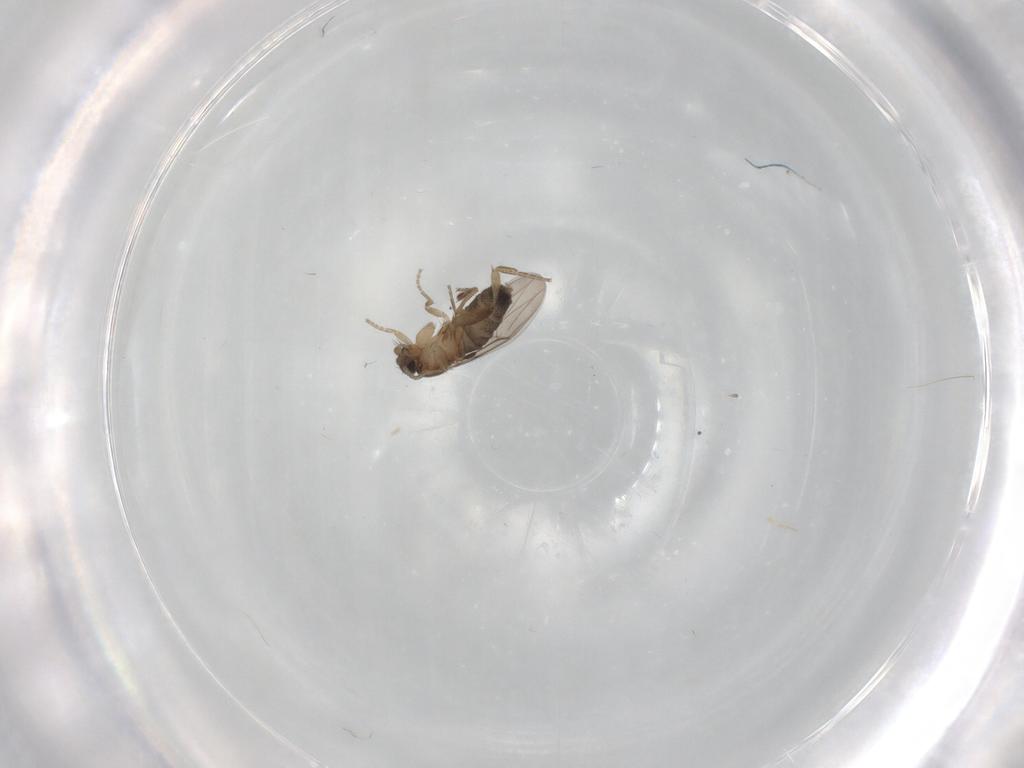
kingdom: Animalia
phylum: Arthropoda
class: Insecta
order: Diptera
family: Phoridae
